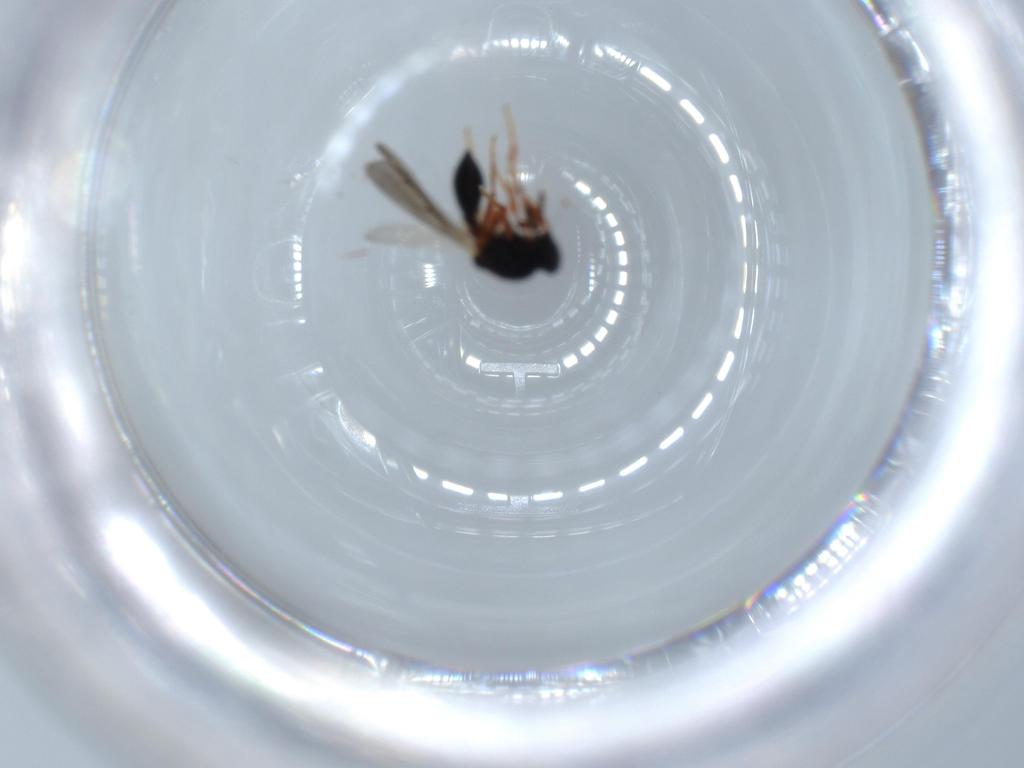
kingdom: Animalia
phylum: Arthropoda
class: Insecta
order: Hymenoptera
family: Platygastridae
